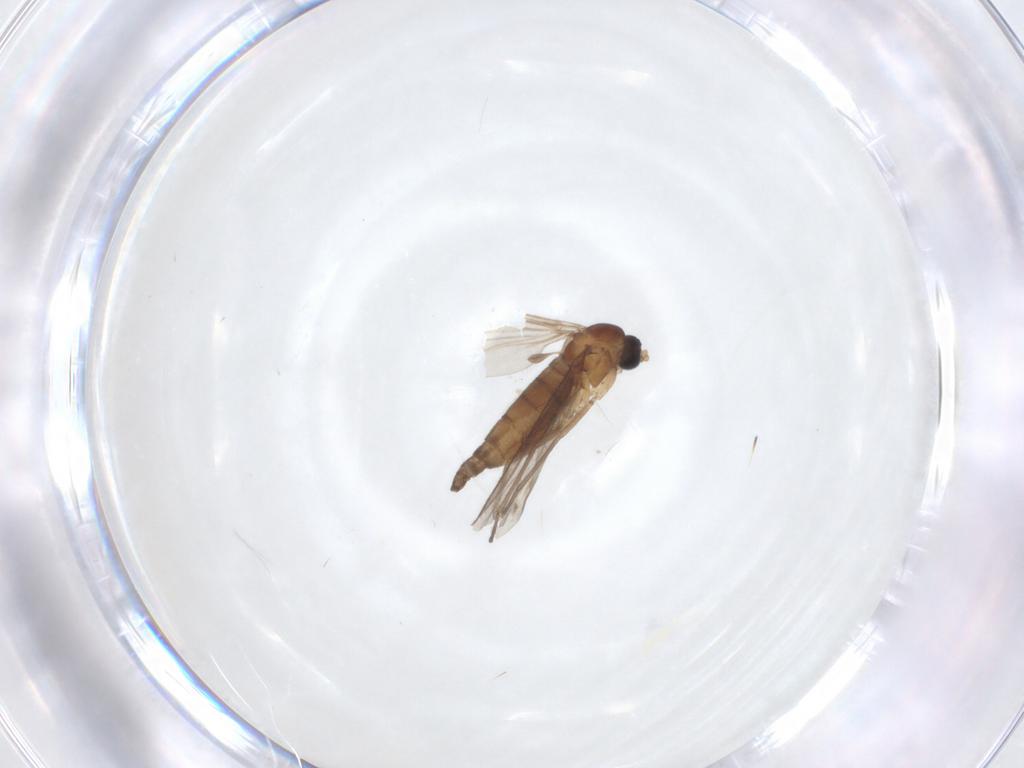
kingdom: Animalia
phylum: Arthropoda
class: Insecta
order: Diptera
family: Sciaridae
